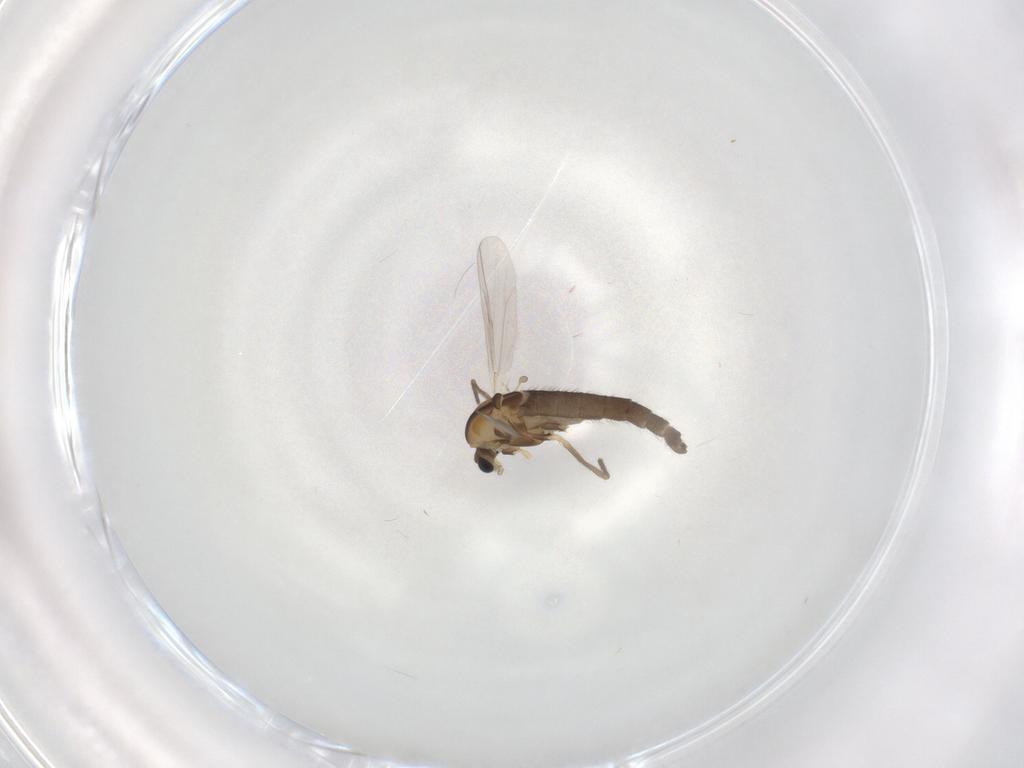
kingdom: Animalia
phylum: Arthropoda
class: Insecta
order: Diptera
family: Chironomidae
